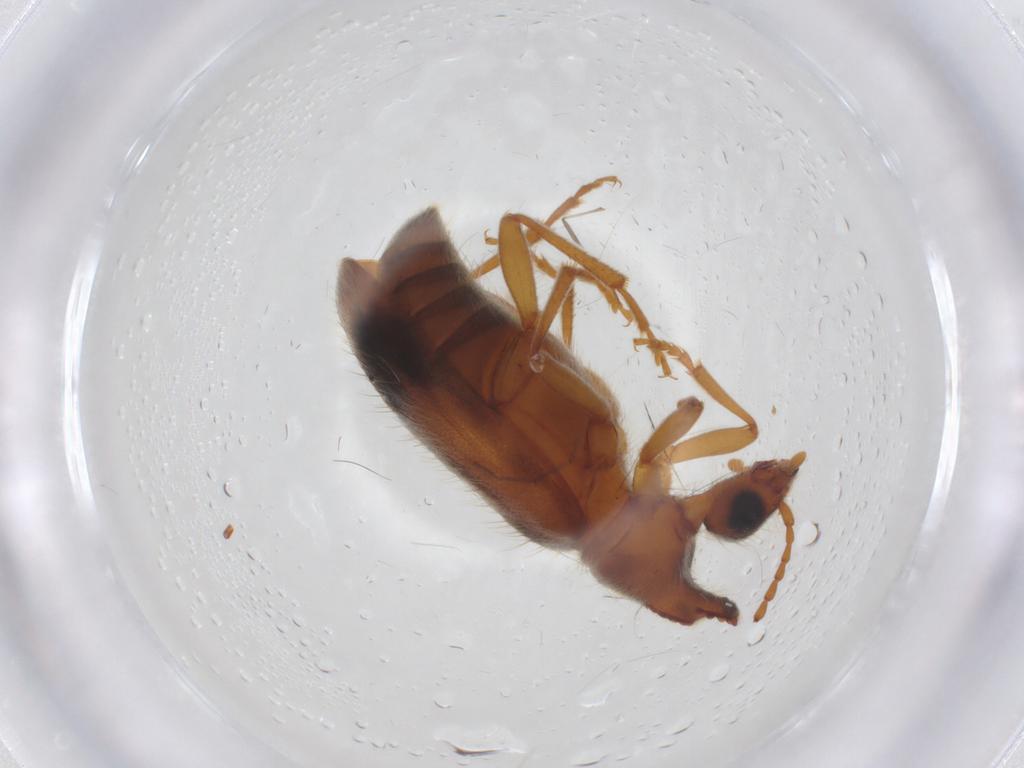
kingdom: Animalia
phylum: Arthropoda
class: Insecta
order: Coleoptera
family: Anthicidae
